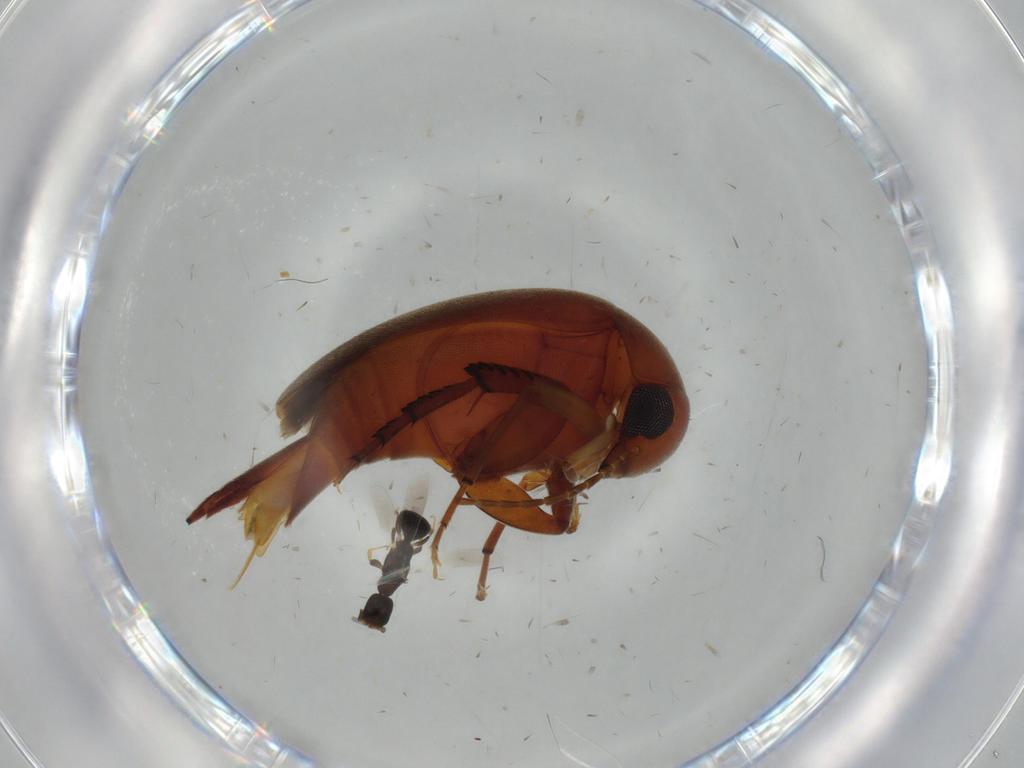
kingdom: Animalia
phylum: Arthropoda
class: Insecta
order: Coleoptera
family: Mordellidae
